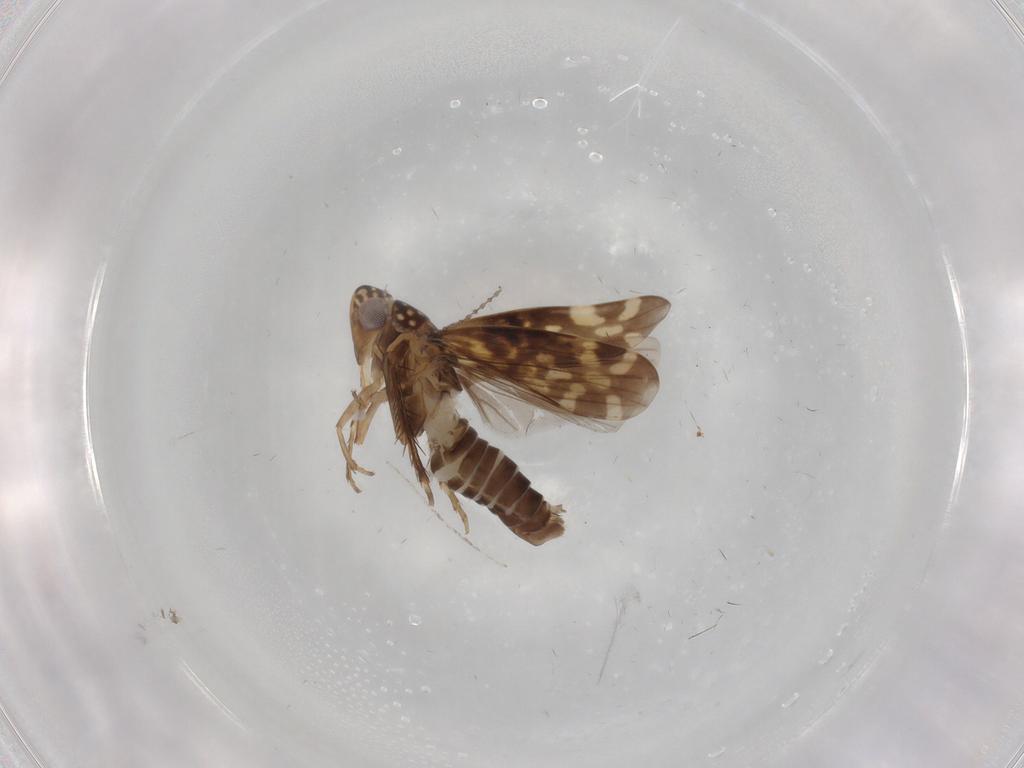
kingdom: Animalia
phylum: Arthropoda
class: Insecta
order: Hemiptera
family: Cicadellidae
